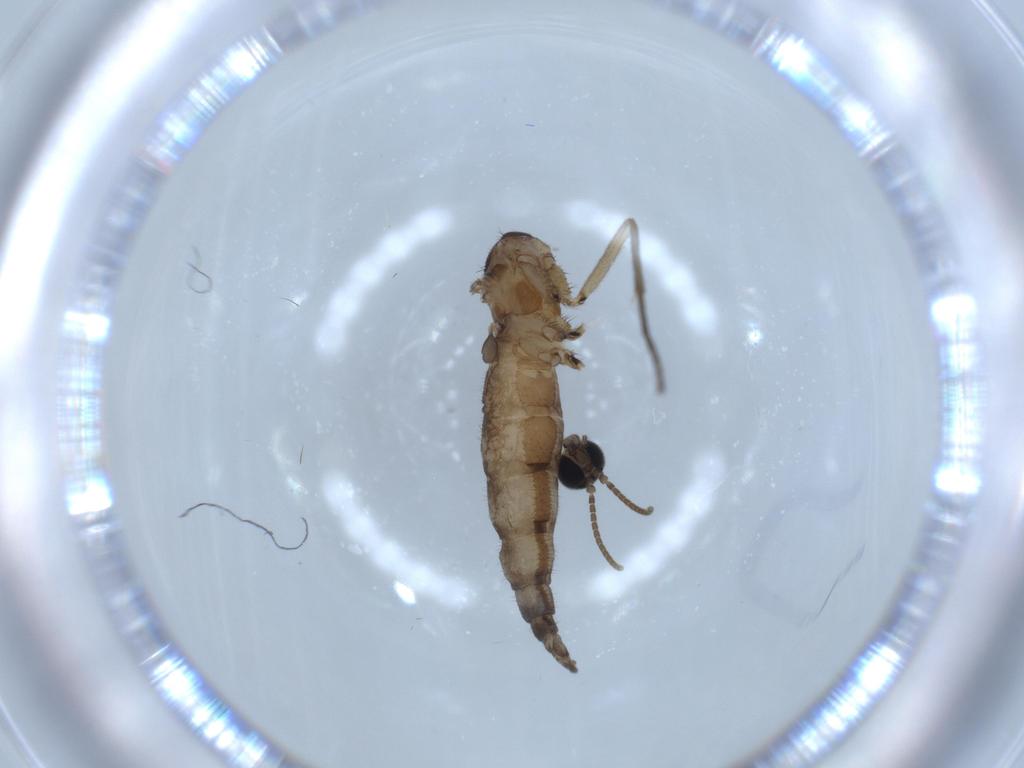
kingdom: Animalia
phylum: Arthropoda
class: Insecta
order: Diptera
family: Sciaridae
